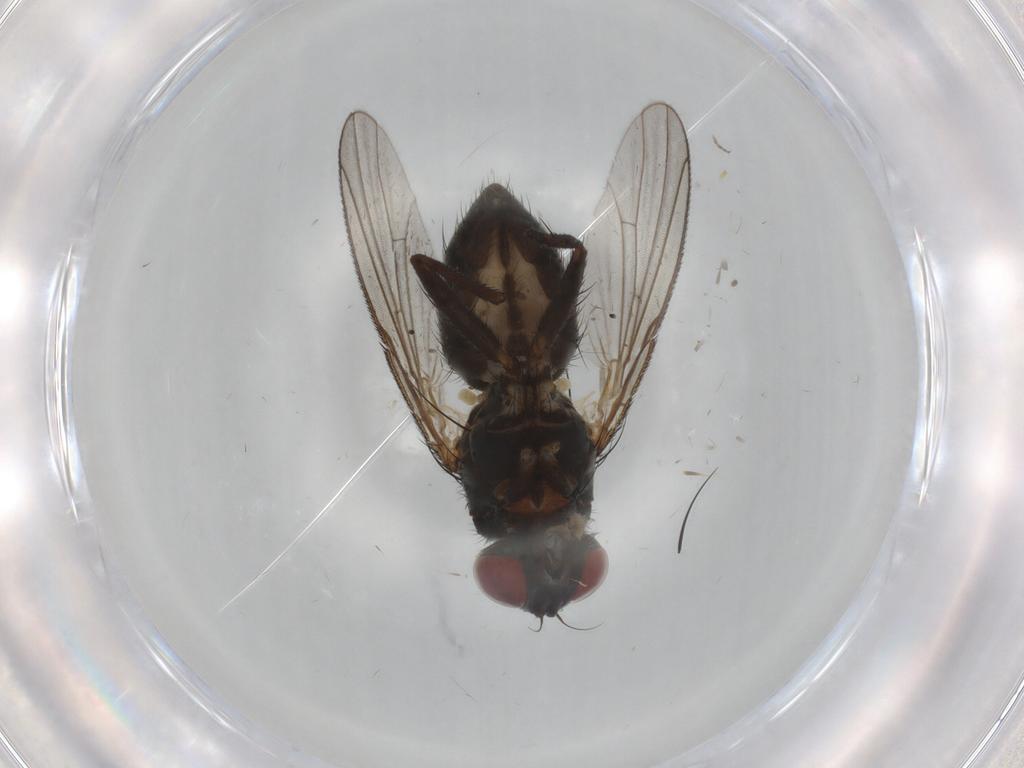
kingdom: Animalia
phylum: Arthropoda
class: Insecta
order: Diptera
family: Muscidae
